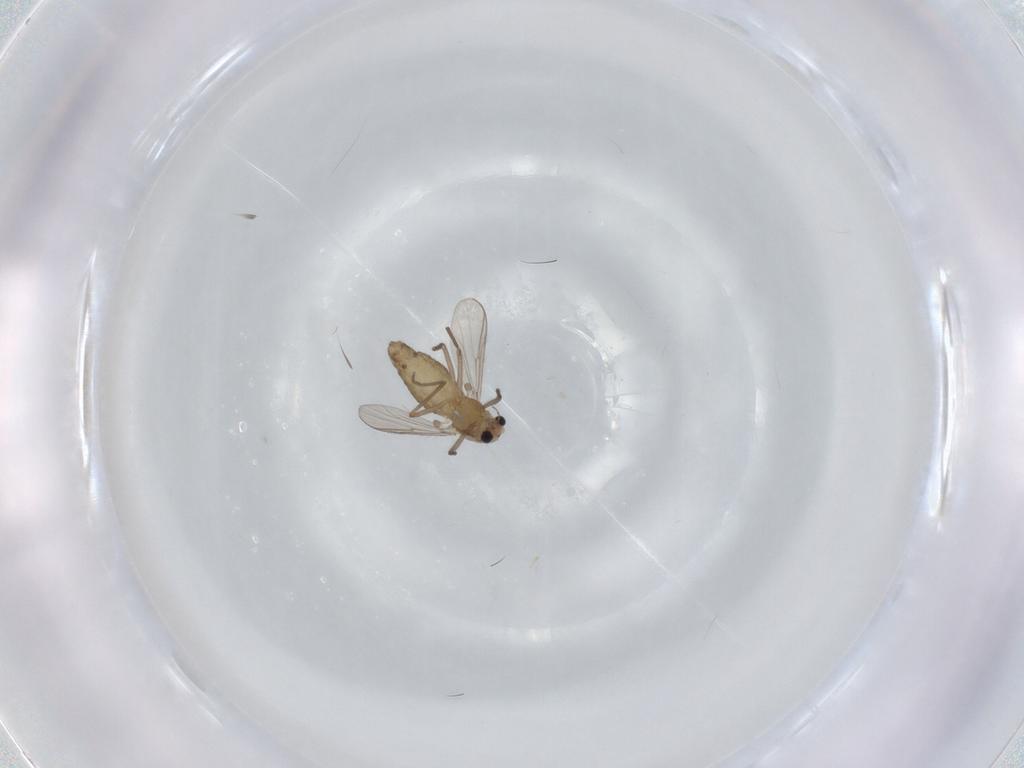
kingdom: Animalia
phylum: Arthropoda
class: Insecta
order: Diptera
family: Chironomidae
